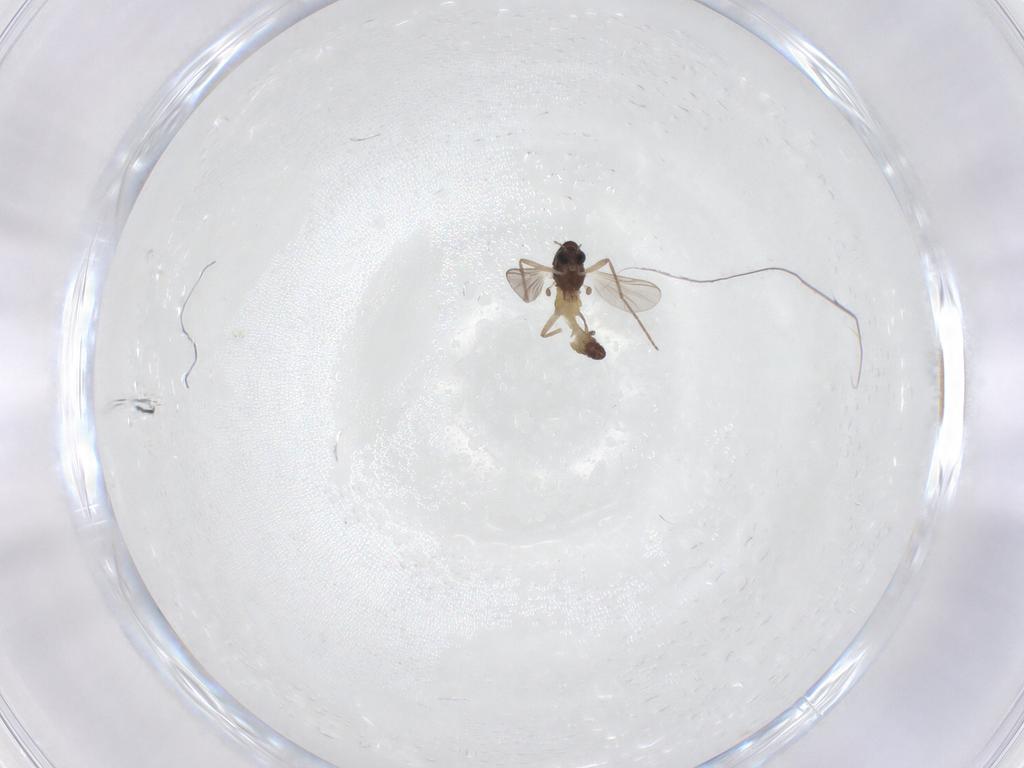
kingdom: Animalia
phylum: Arthropoda
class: Insecta
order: Diptera
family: Chironomidae
